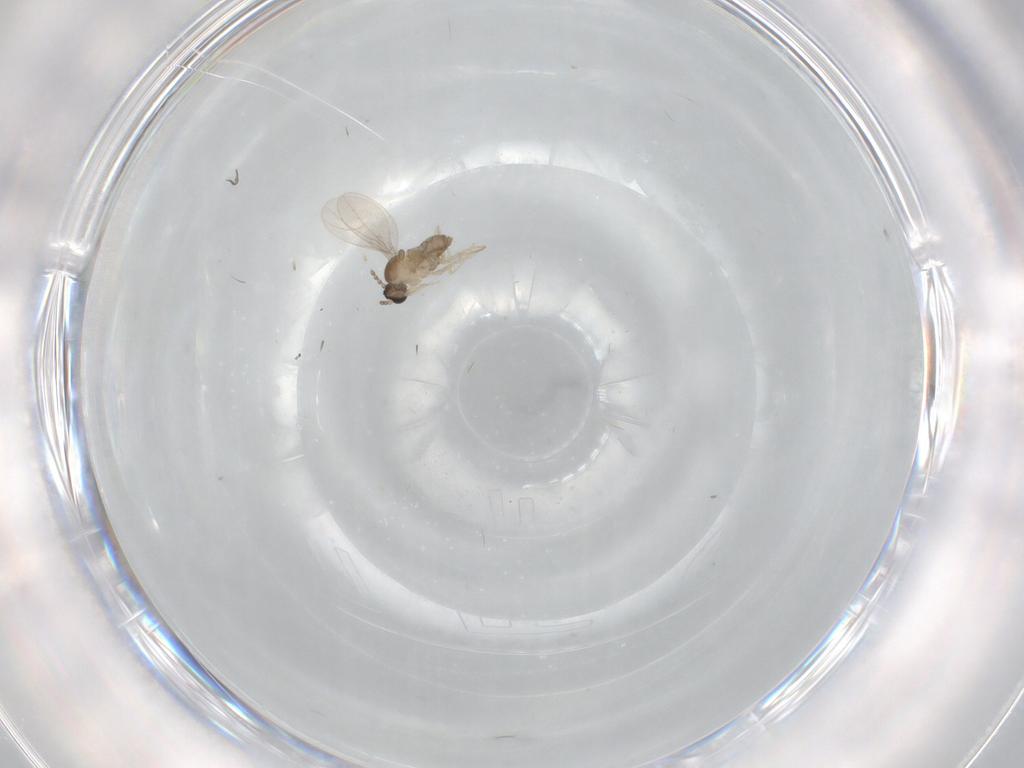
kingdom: Animalia
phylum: Arthropoda
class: Insecta
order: Diptera
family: Sciaridae
